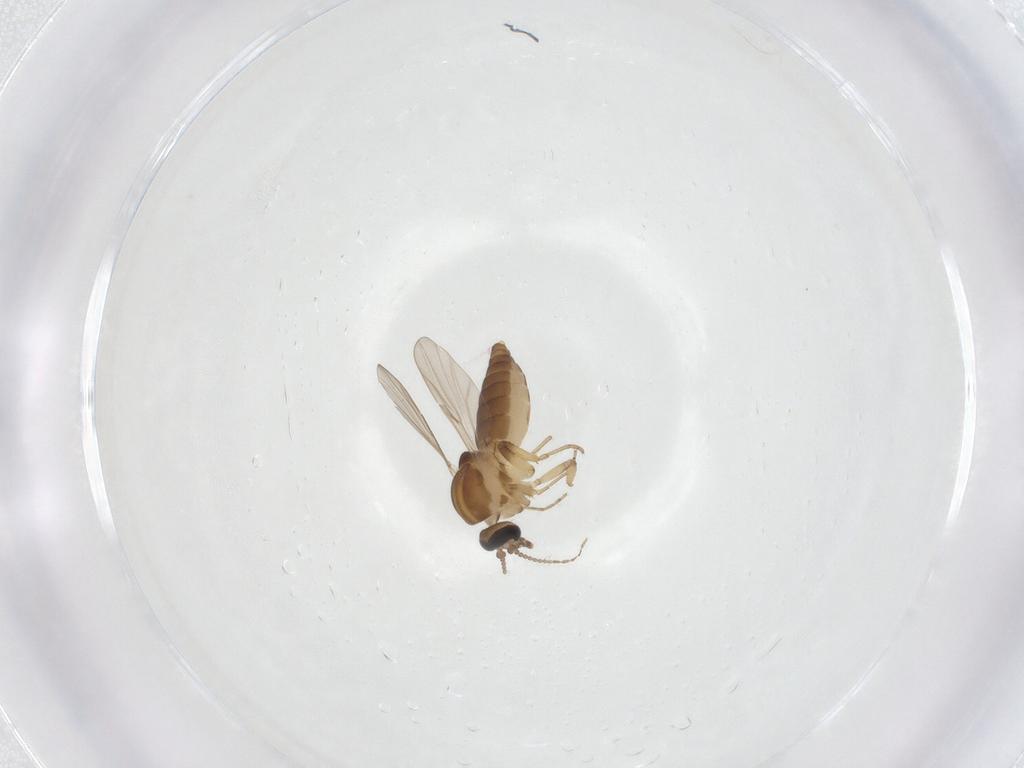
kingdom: Animalia
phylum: Arthropoda
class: Insecta
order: Diptera
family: Ceratopogonidae
